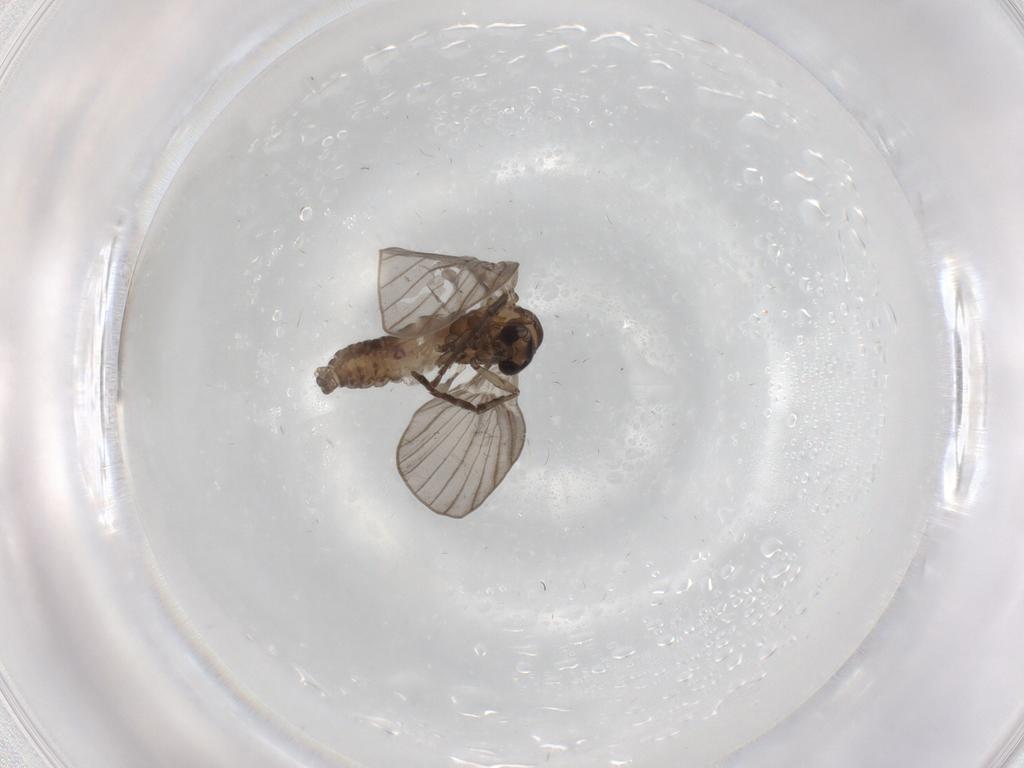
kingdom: Animalia
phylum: Arthropoda
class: Insecta
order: Diptera
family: Psychodidae
